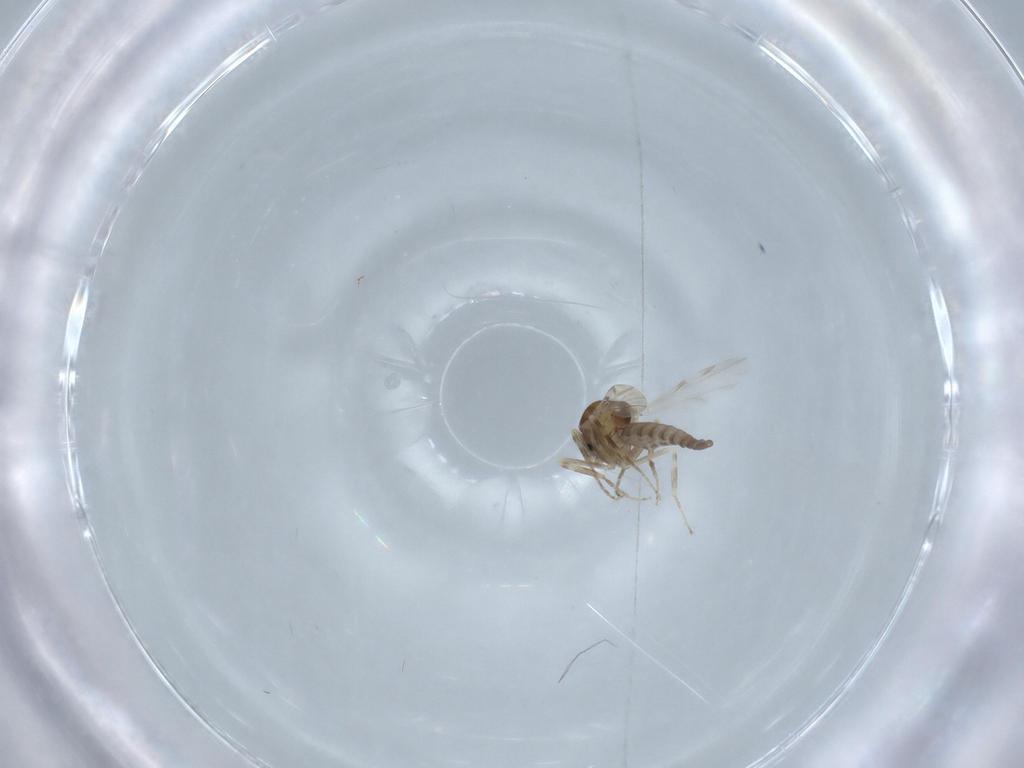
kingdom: Animalia
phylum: Arthropoda
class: Insecta
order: Diptera
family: Ceratopogonidae
